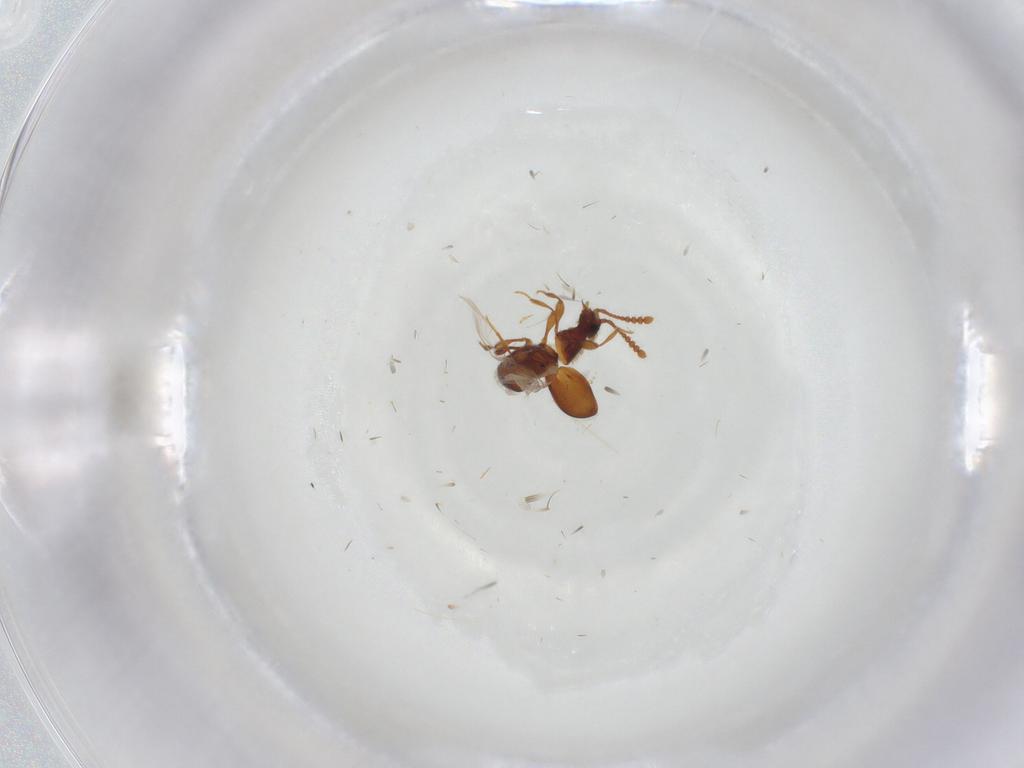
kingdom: Animalia
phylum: Arthropoda
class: Insecta
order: Coleoptera
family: Staphylinidae
